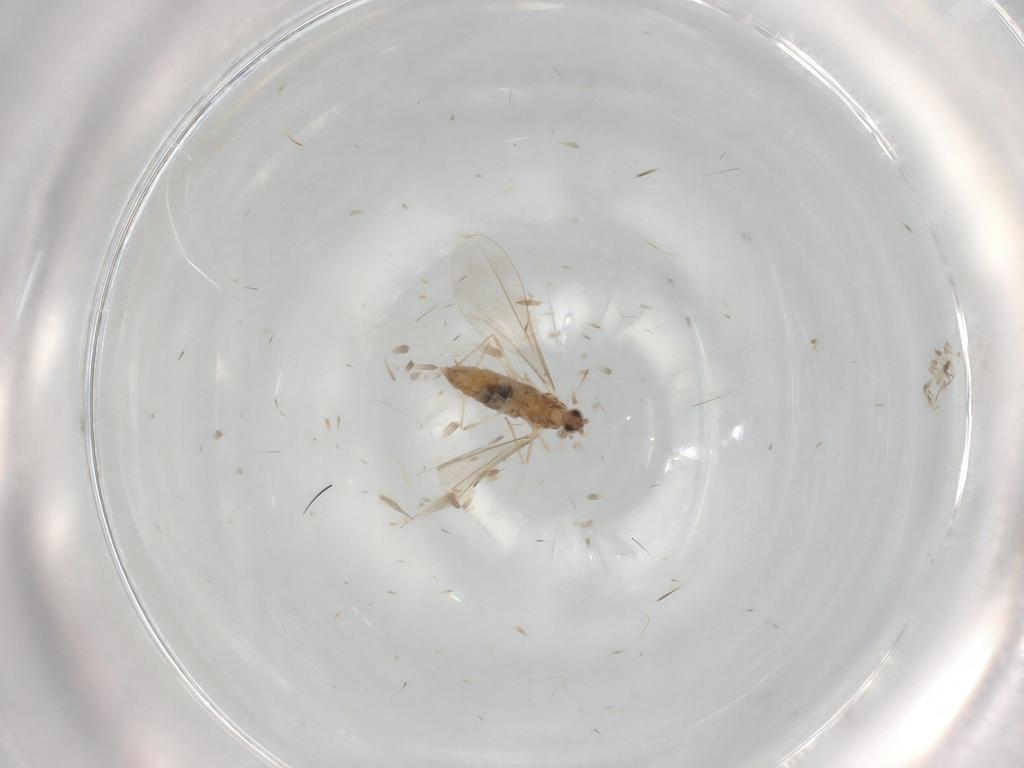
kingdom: Animalia
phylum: Arthropoda
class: Insecta
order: Diptera
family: Cecidomyiidae
